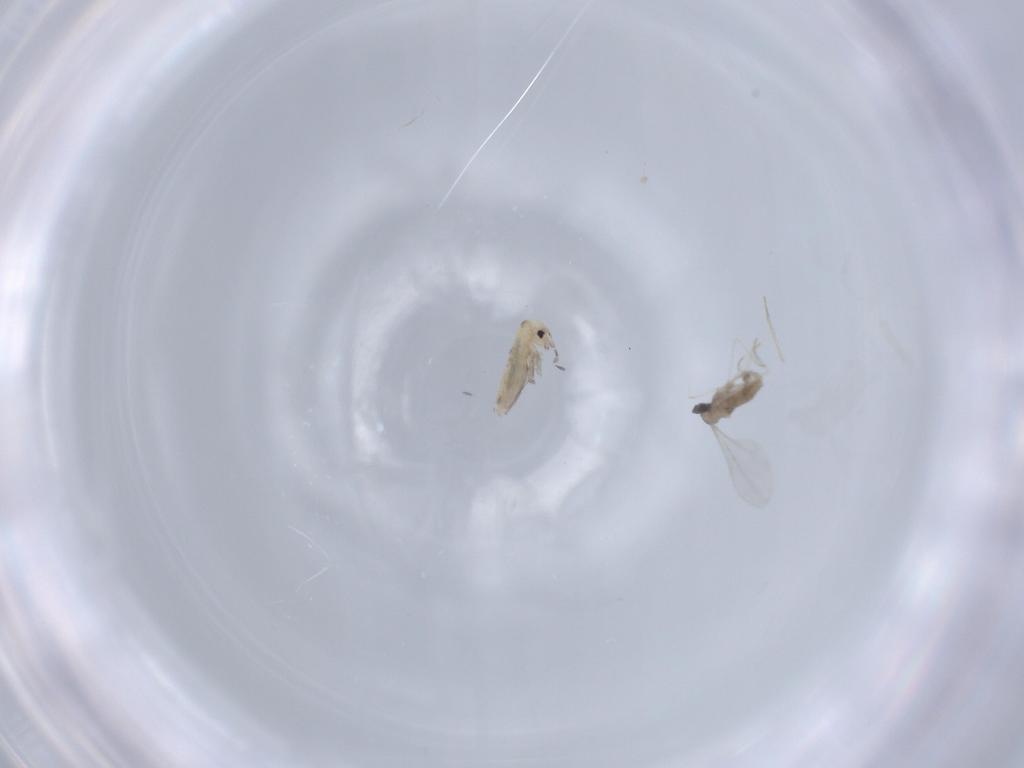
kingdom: Animalia
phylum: Arthropoda
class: Insecta
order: Diptera
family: Cecidomyiidae
